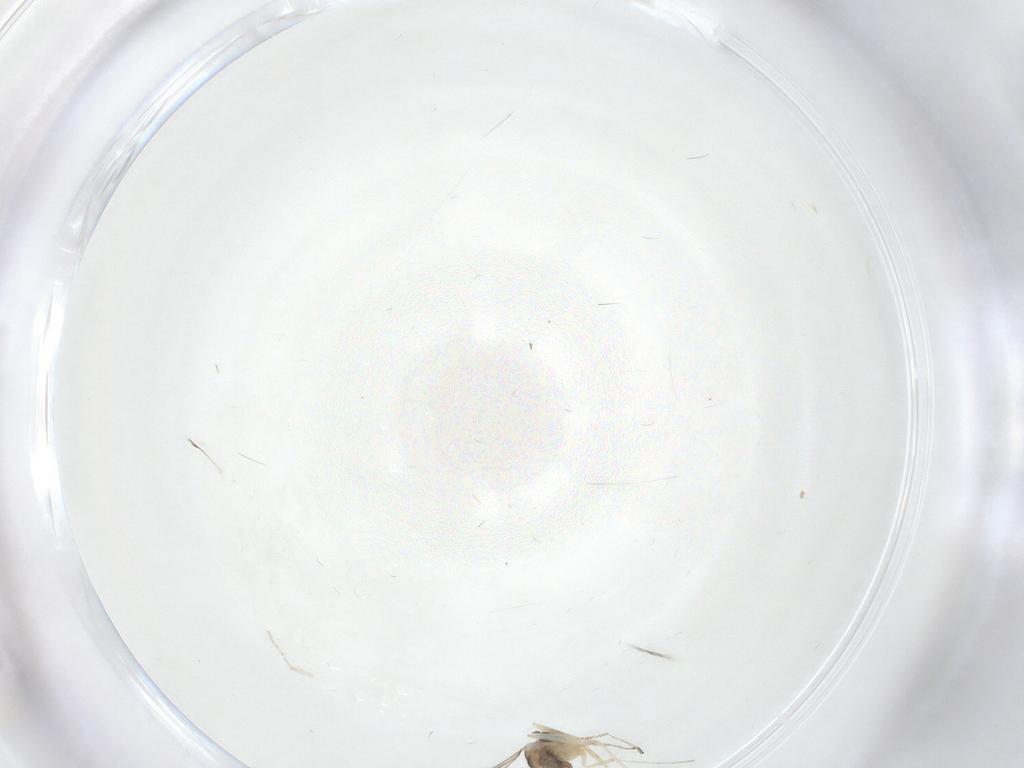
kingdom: Animalia
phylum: Arthropoda
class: Insecta
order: Diptera
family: Cecidomyiidae
